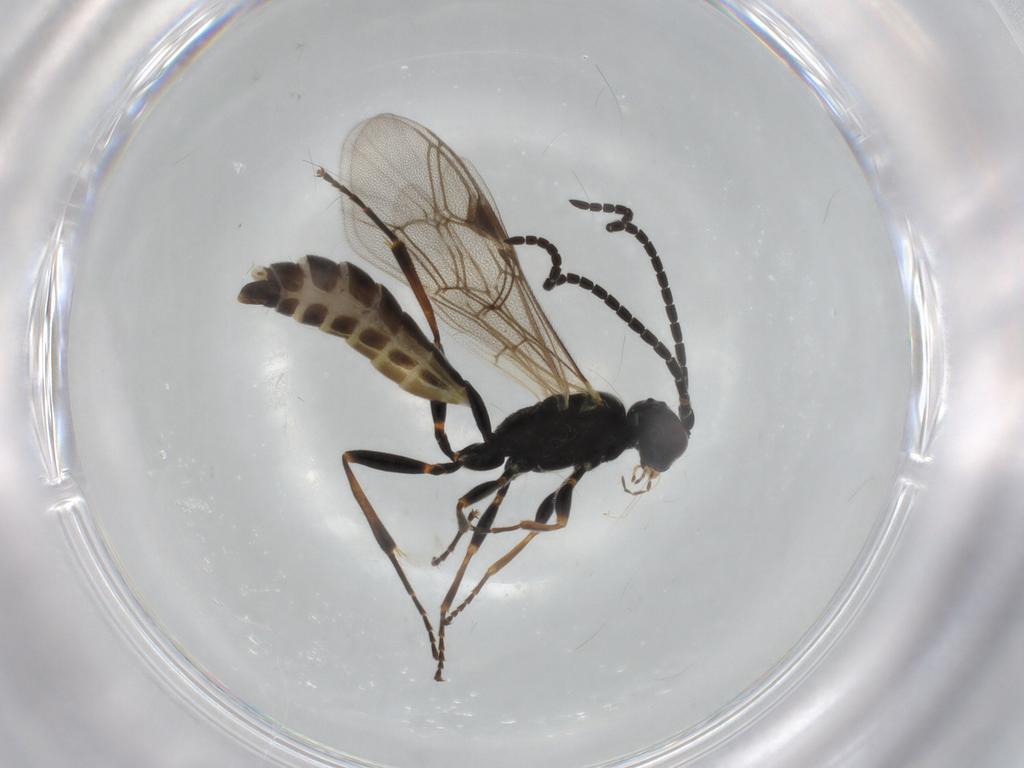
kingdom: Animalia
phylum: Arthropoda
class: Insecta
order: Hymenoptera
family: Ichneumonidae
